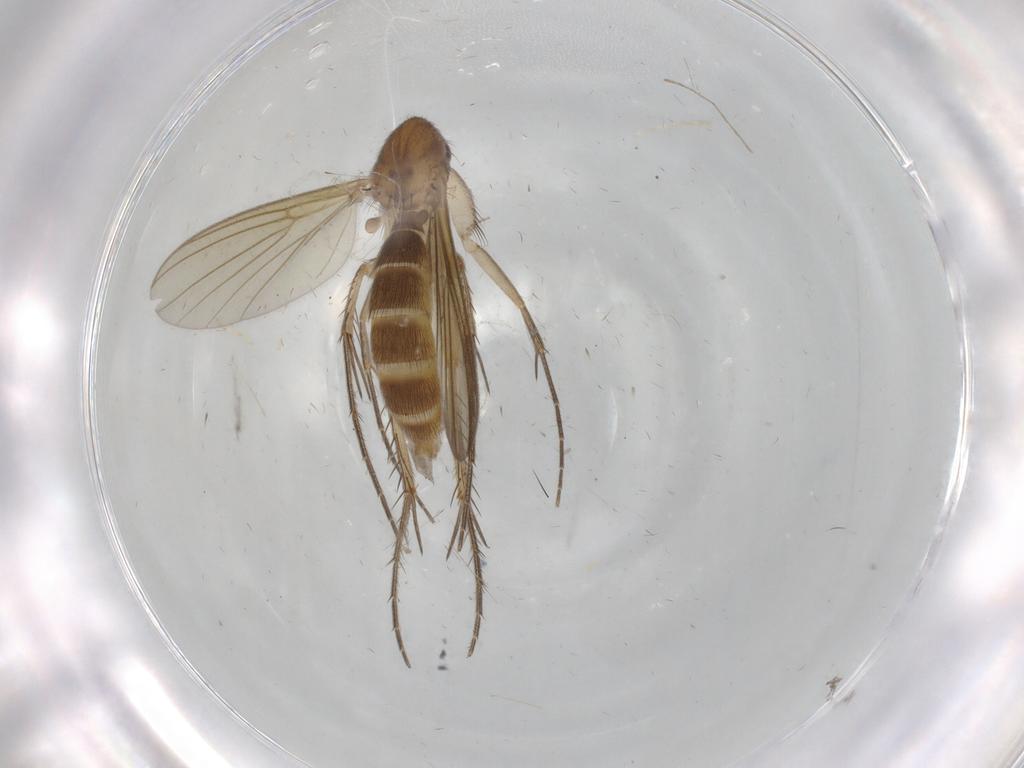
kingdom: Animalia
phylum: Arthropoda
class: Insecta
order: Diptera
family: Mycetophilidae
